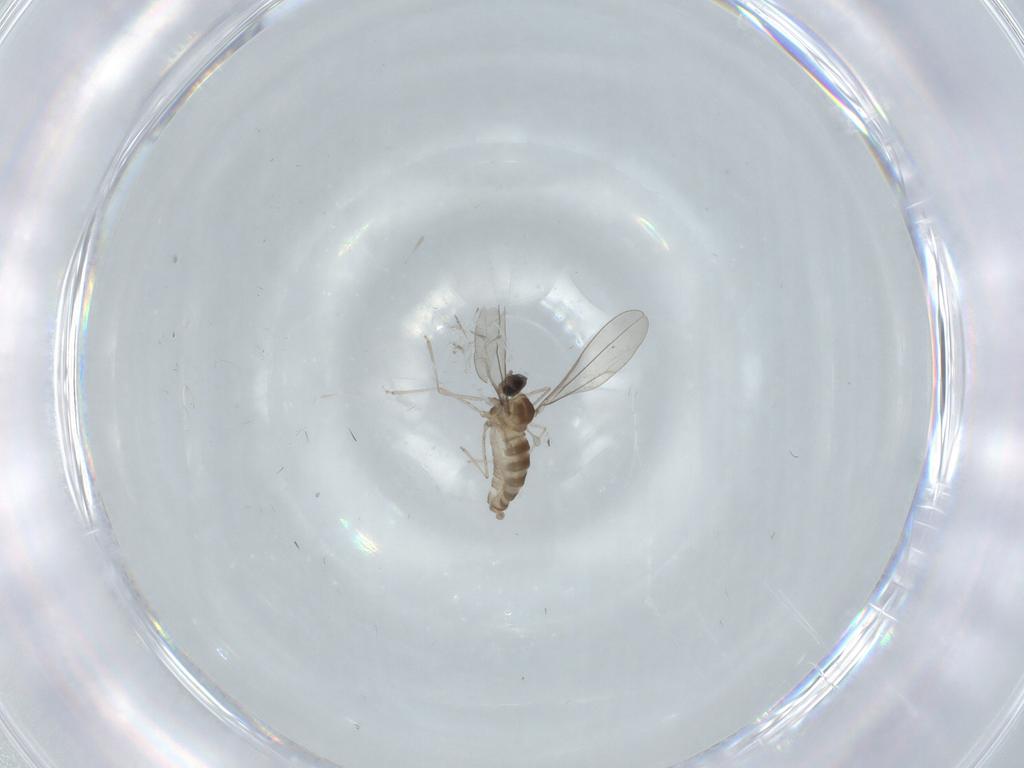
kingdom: Animalia
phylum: Arthropoda
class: Insecta
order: Diptera
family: Cecidomyiidae
